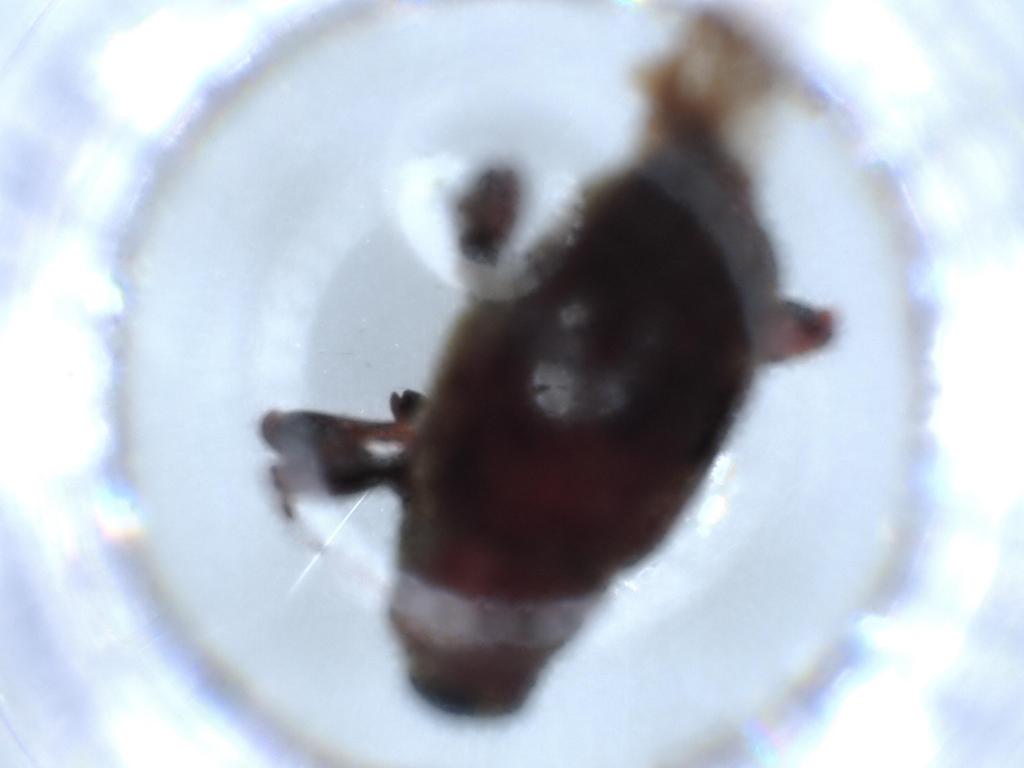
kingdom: Animalia
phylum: Arthropoda
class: Insecta
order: Coleoptera
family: Curculionidae
